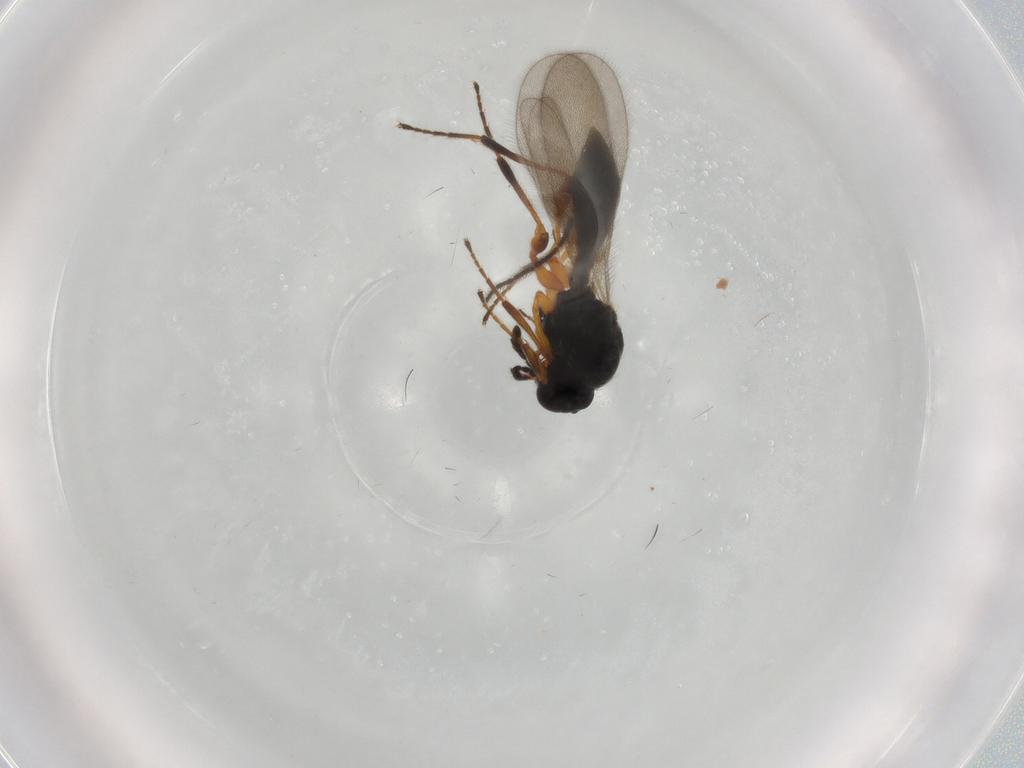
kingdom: Animalia
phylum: Arthropoda
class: Insecta
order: Hymenoptera
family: Platygastridae
